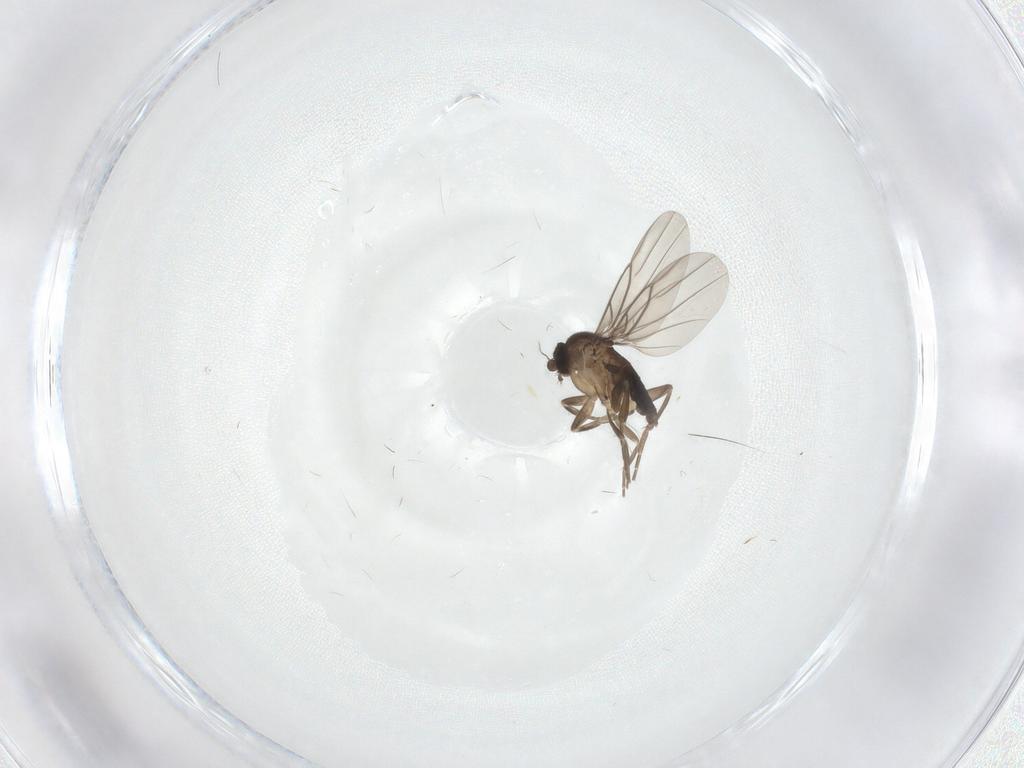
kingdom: Animalia
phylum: Arthropoda
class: Insecta
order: Diptera
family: Phoridae
